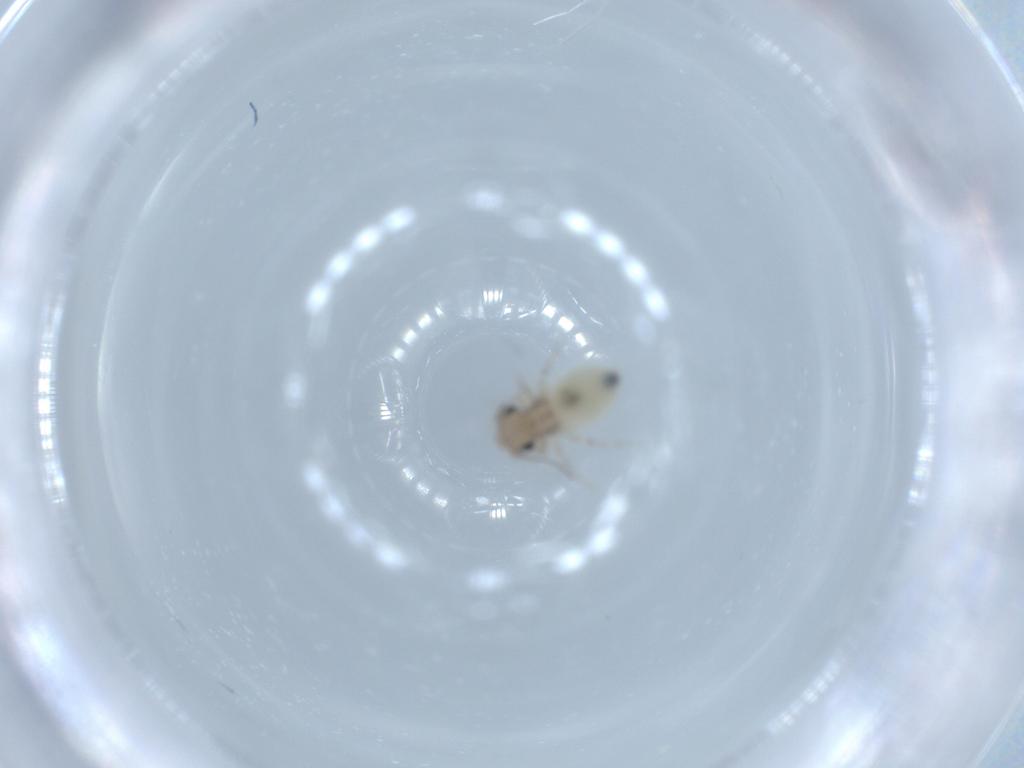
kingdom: Animalia
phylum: Arthropoda
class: Insecta
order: Psocodea
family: Lepidopsocidae
